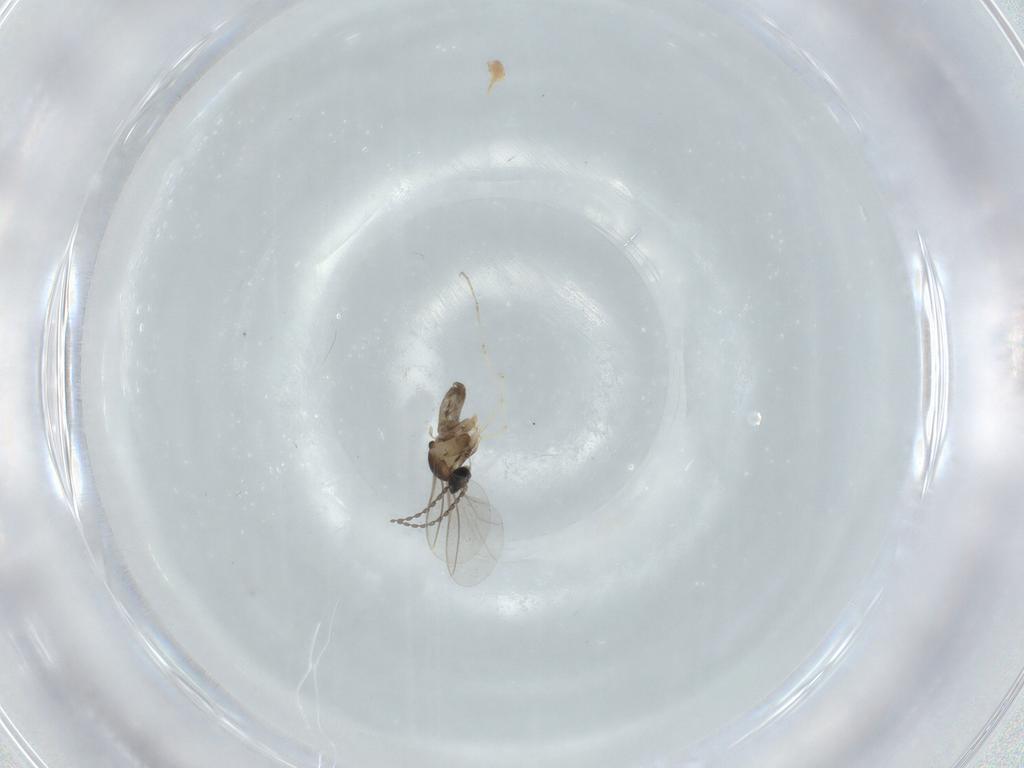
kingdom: Animalia
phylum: Arthropoda
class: Insecta
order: Diptera
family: Cecidomyiidae
